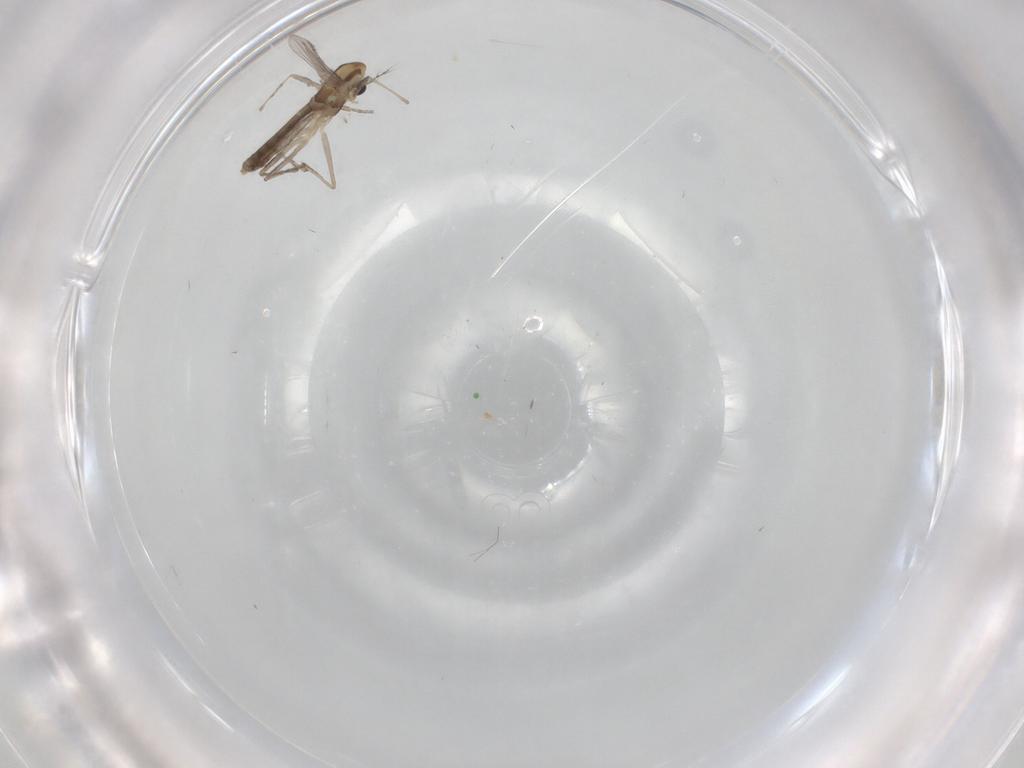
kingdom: Animalia
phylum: Arthropoda
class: Insecta
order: Diptera
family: Chironomidae
